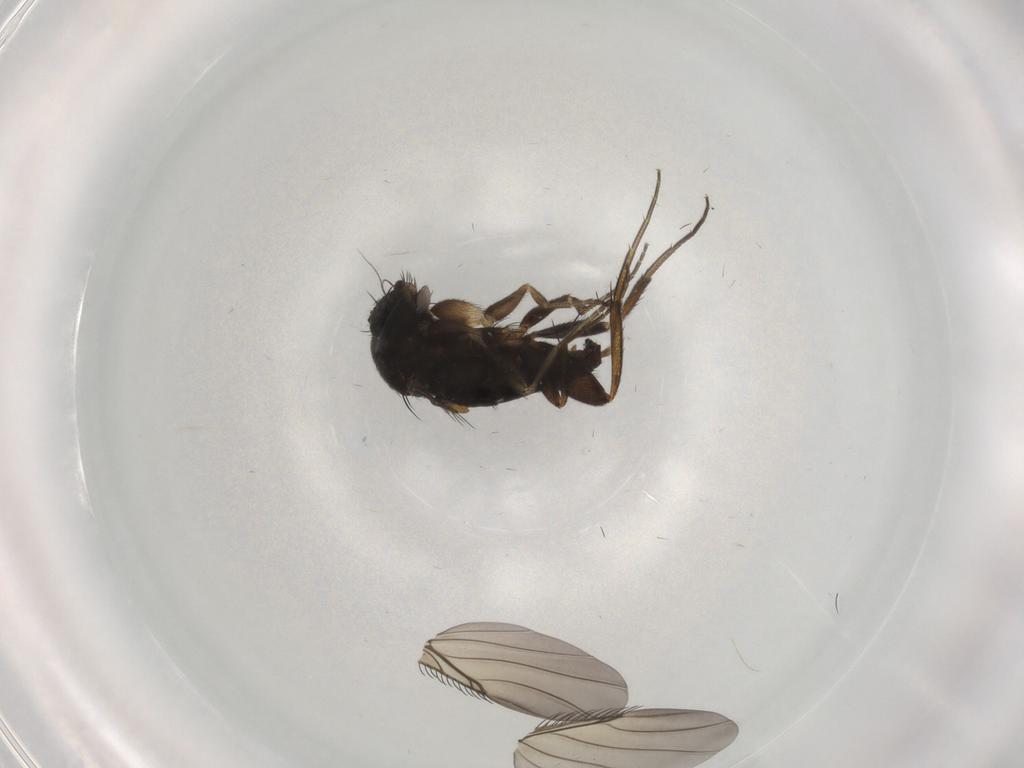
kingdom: Animalia
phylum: Arthropoda
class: Insecta
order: Diptera
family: Phoridae
